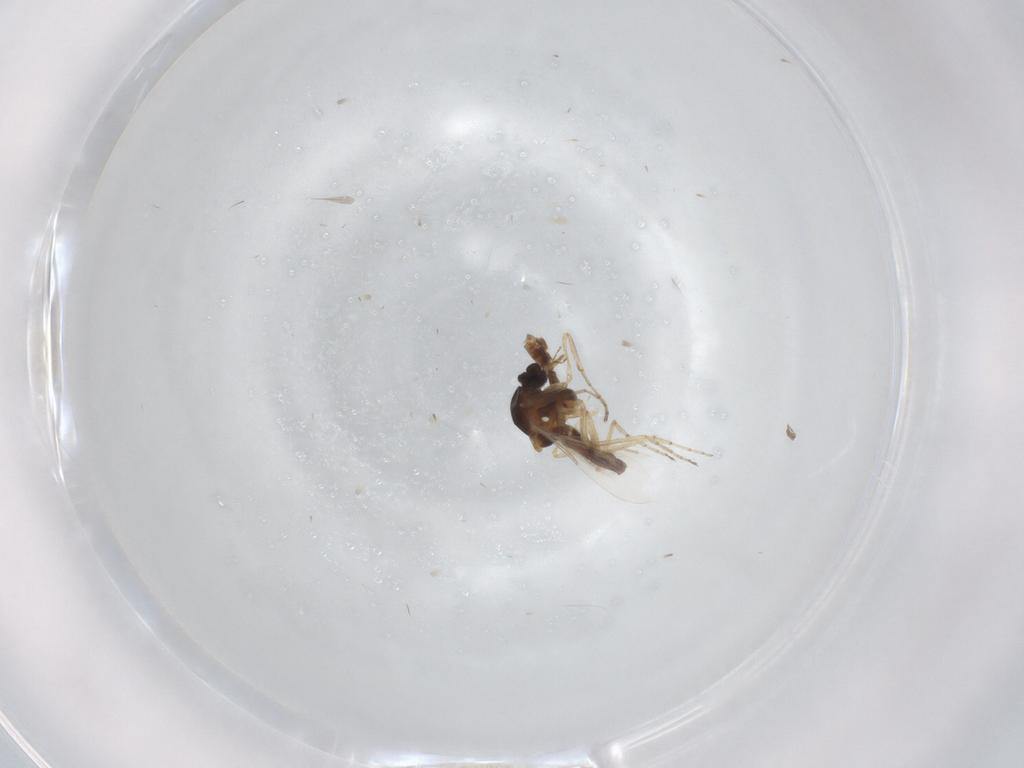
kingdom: Animalia
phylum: Arthropoda
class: Insecta
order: Diptera
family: Ceratopogonidae
